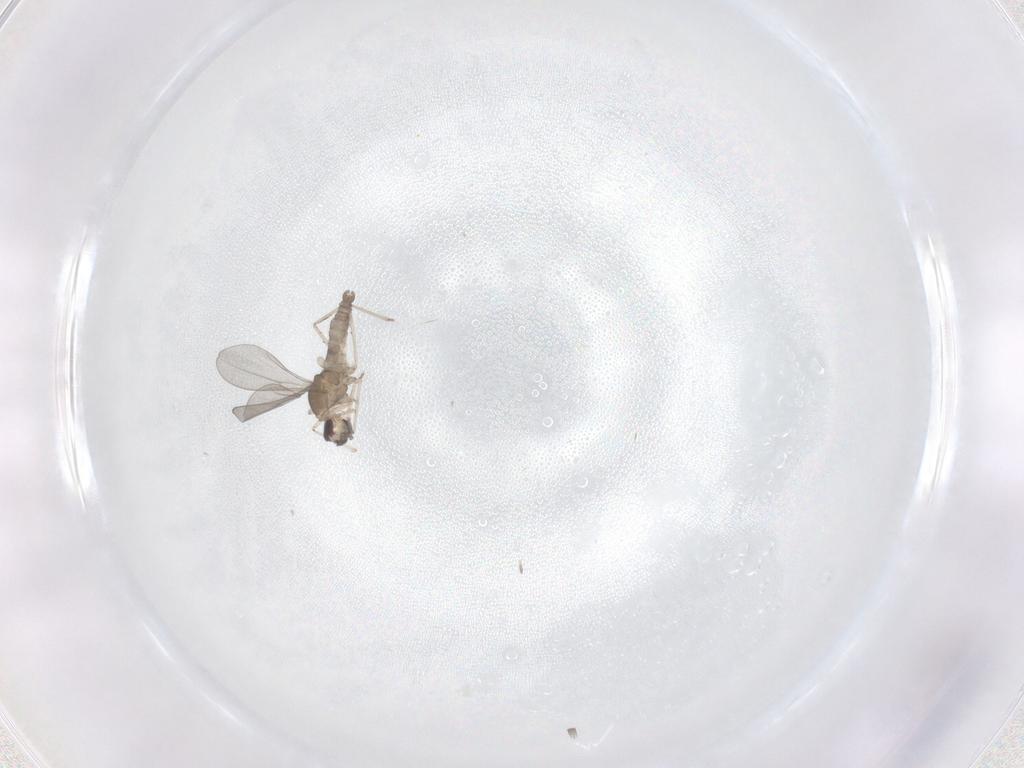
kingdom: Animalia
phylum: Arthropoda
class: Insecta
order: Diptera
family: Cecidomyiidae
